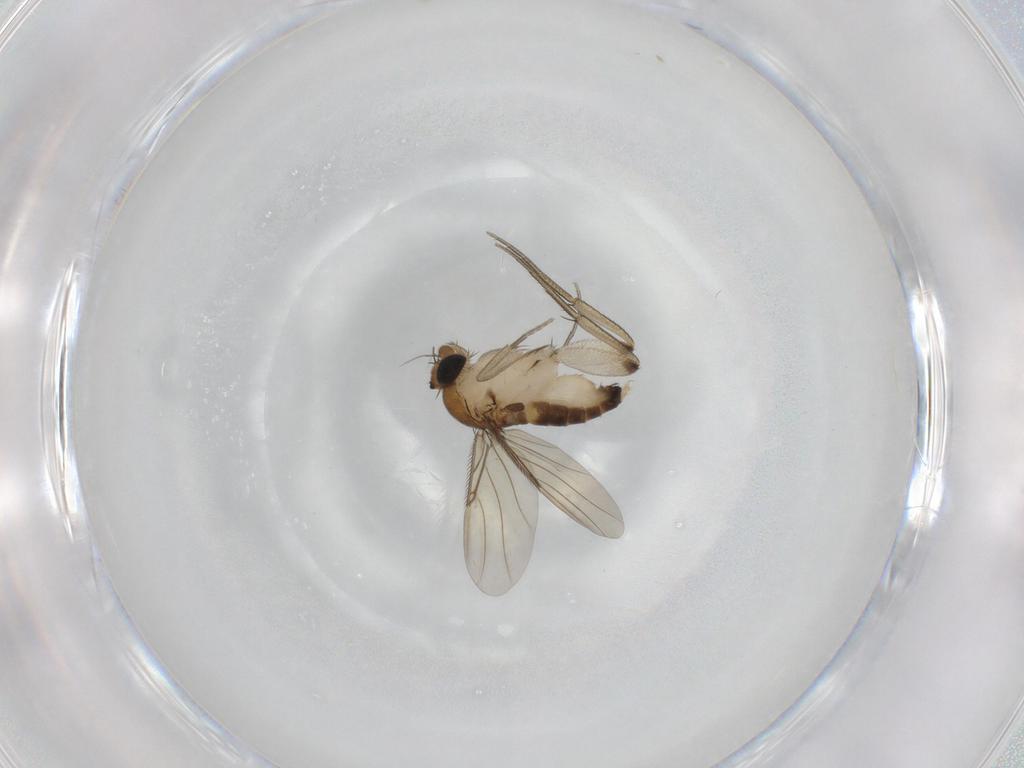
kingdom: Animalia
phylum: Arthropoda
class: Insecta
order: Diptera
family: Phoridae
